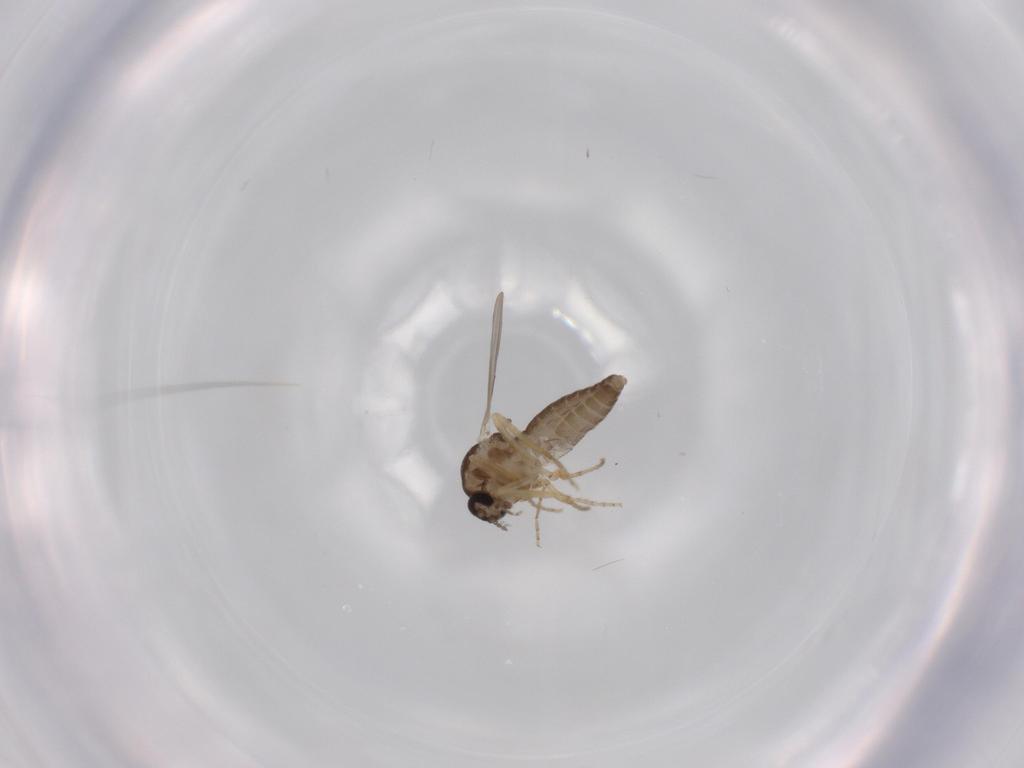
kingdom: Animalia
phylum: Arthropoda
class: Insecta
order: Diptera
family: Ceratopogonidae
